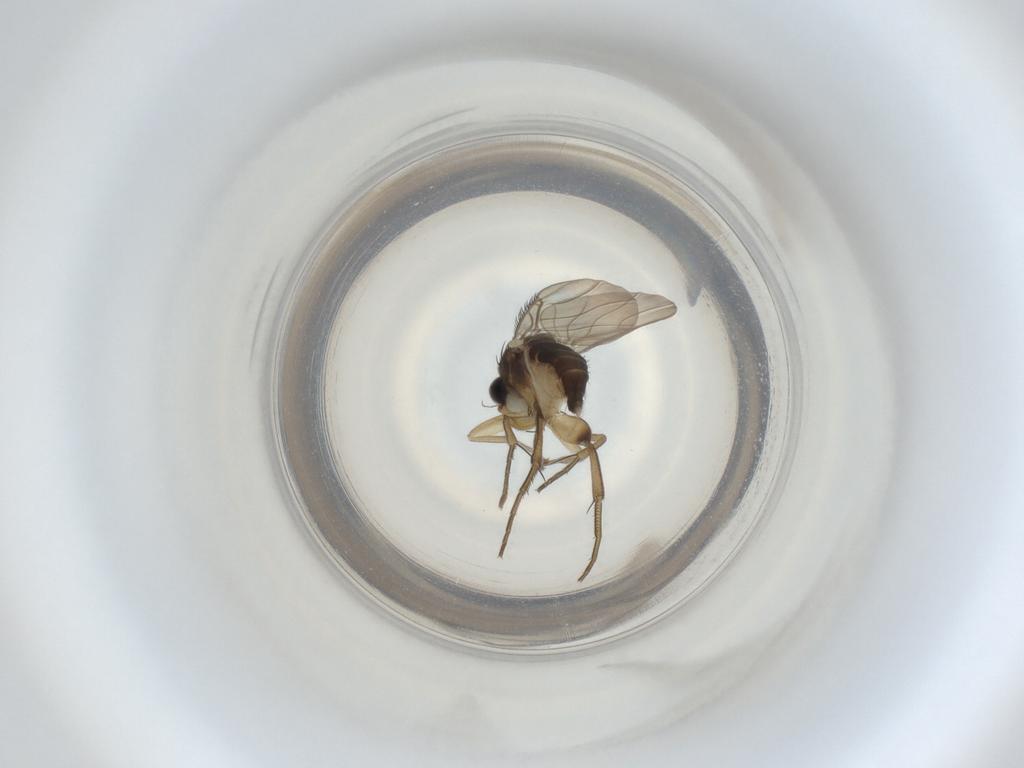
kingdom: Animalia
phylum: Arthropoda
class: Insecta
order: Diptera
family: Phoridae
